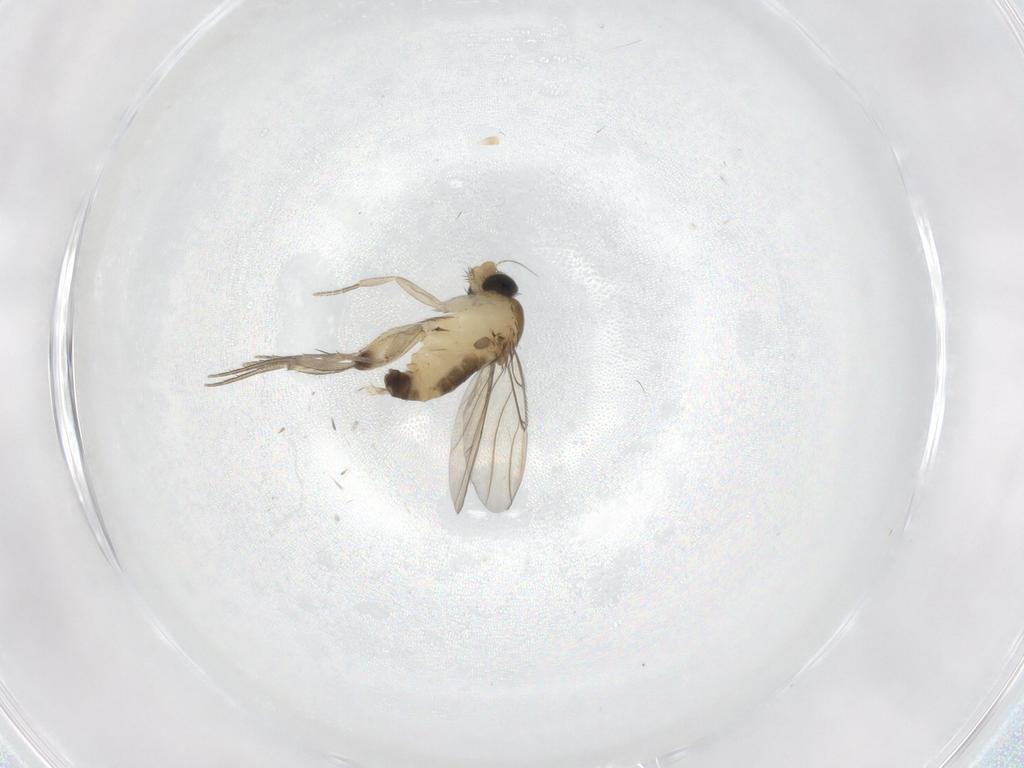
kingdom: Animalia
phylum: Arthropoda
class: Insecta
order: Diptera
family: Phoridae
